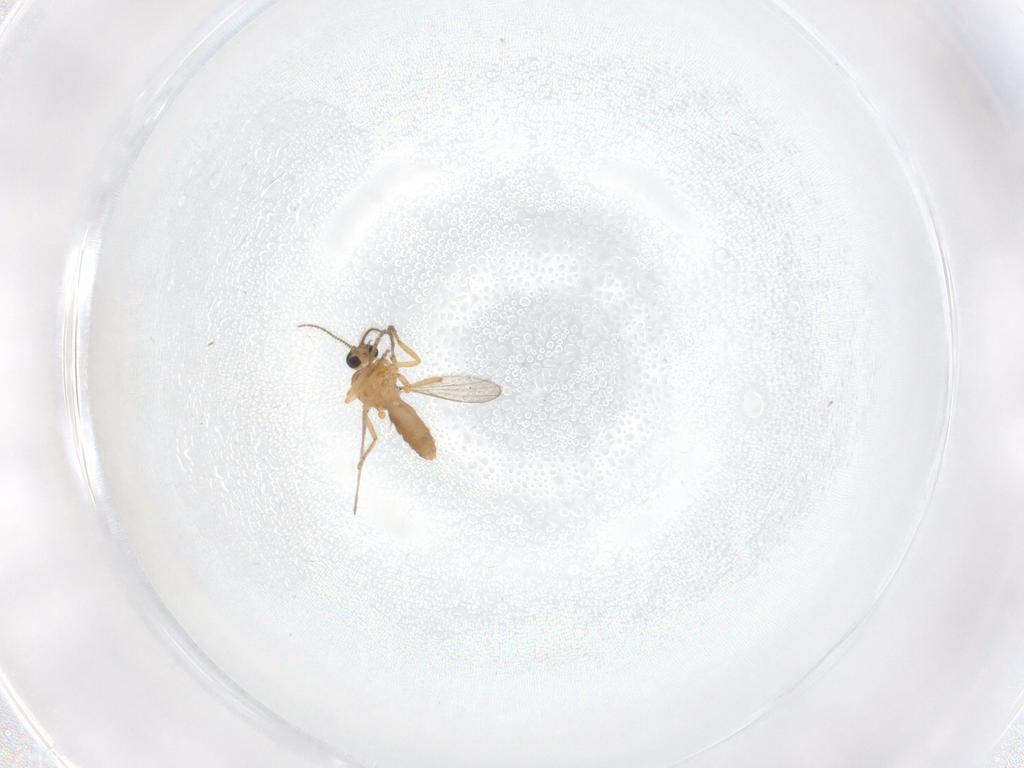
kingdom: Animalia
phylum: Arthropoda
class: Insecta
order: Diptera
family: Ceratopogonidae
